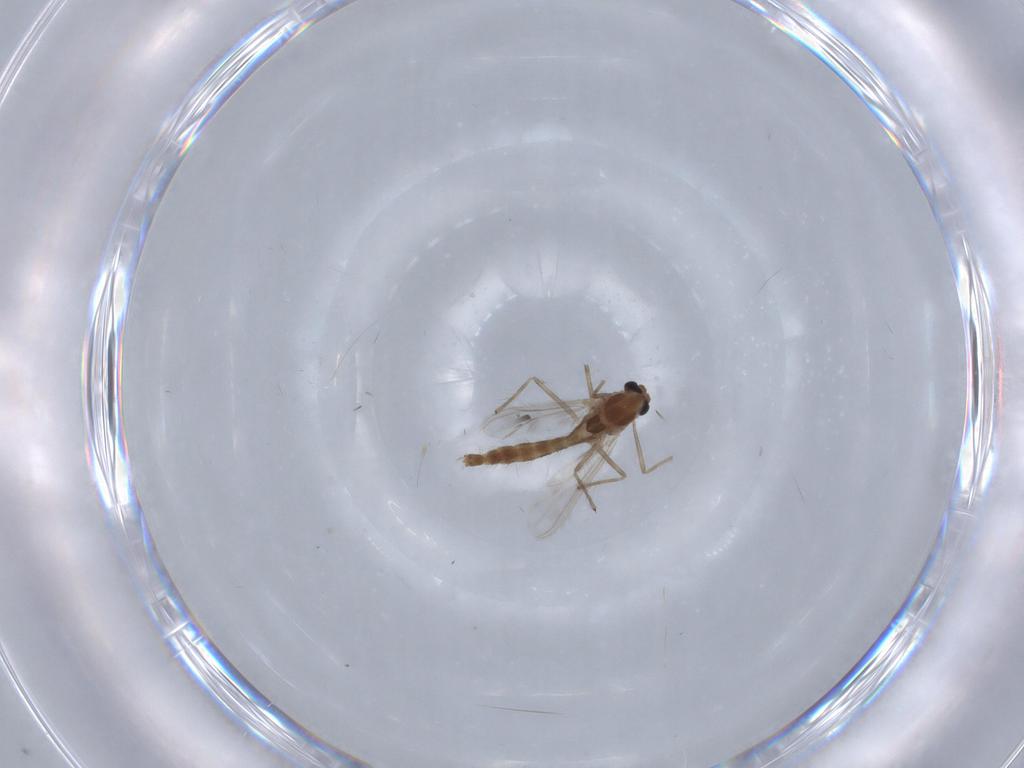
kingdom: Animalia
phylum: Arthropoda
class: Insecta
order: Diptera
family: Chironomidae
